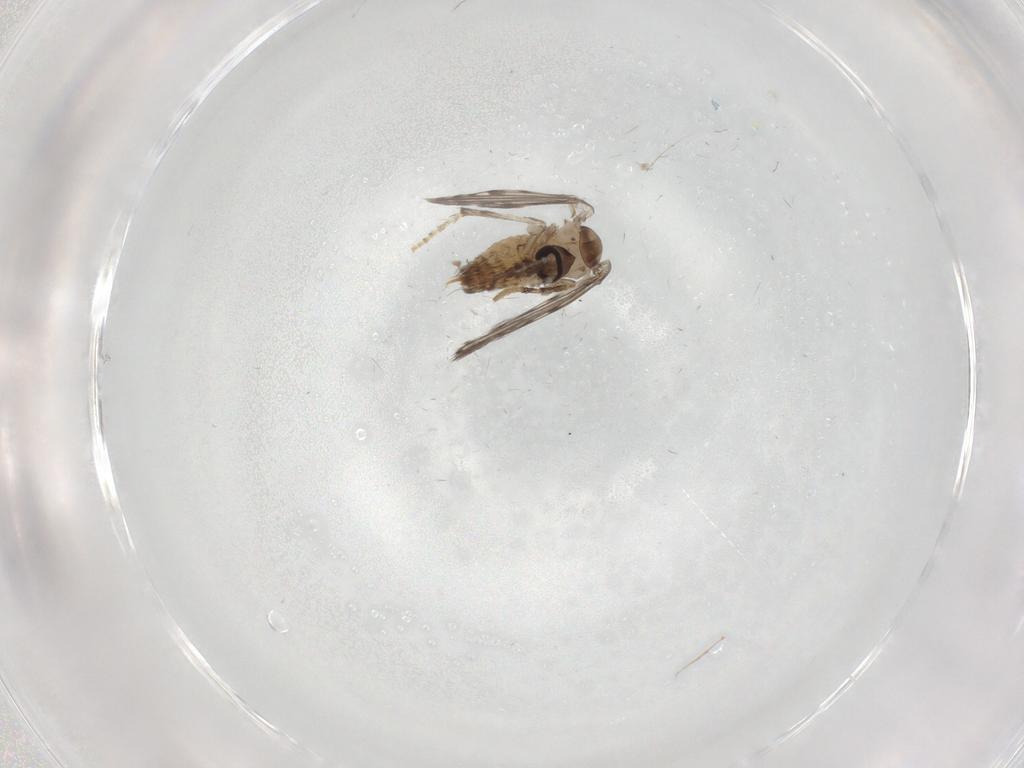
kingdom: Animalia
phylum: Arthropoda
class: Insecta
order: Diptera
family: Psychodidae
